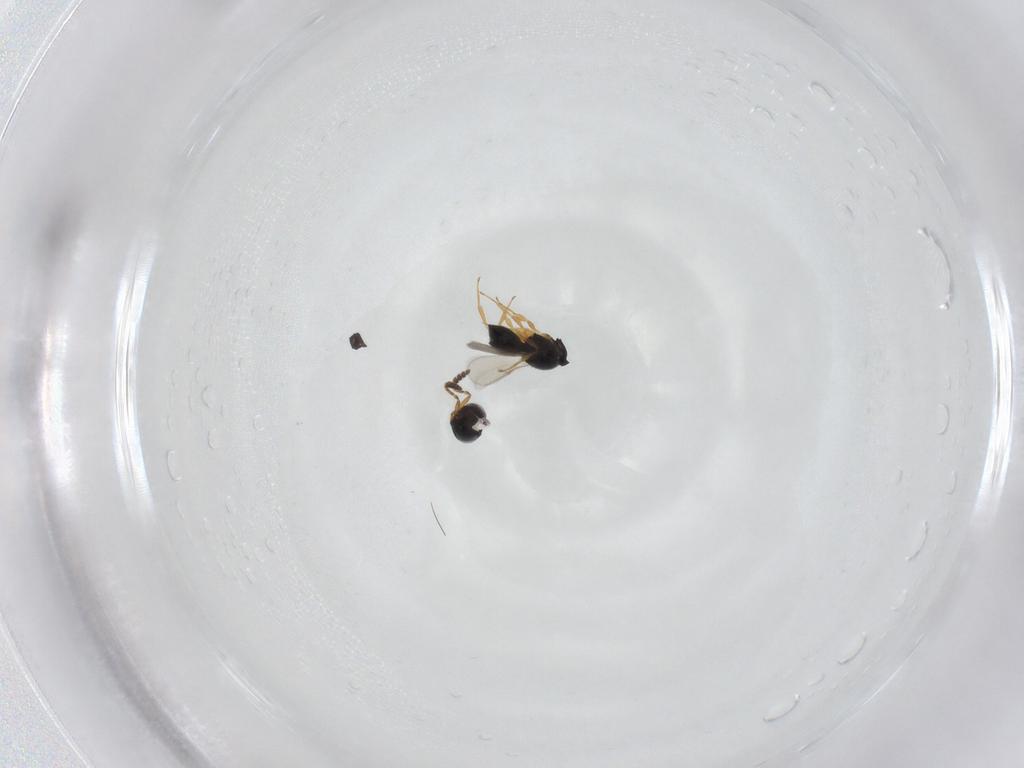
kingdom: Animalia
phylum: Arthropoda
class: Insecta
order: Hymenoptera
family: Scelionidae
